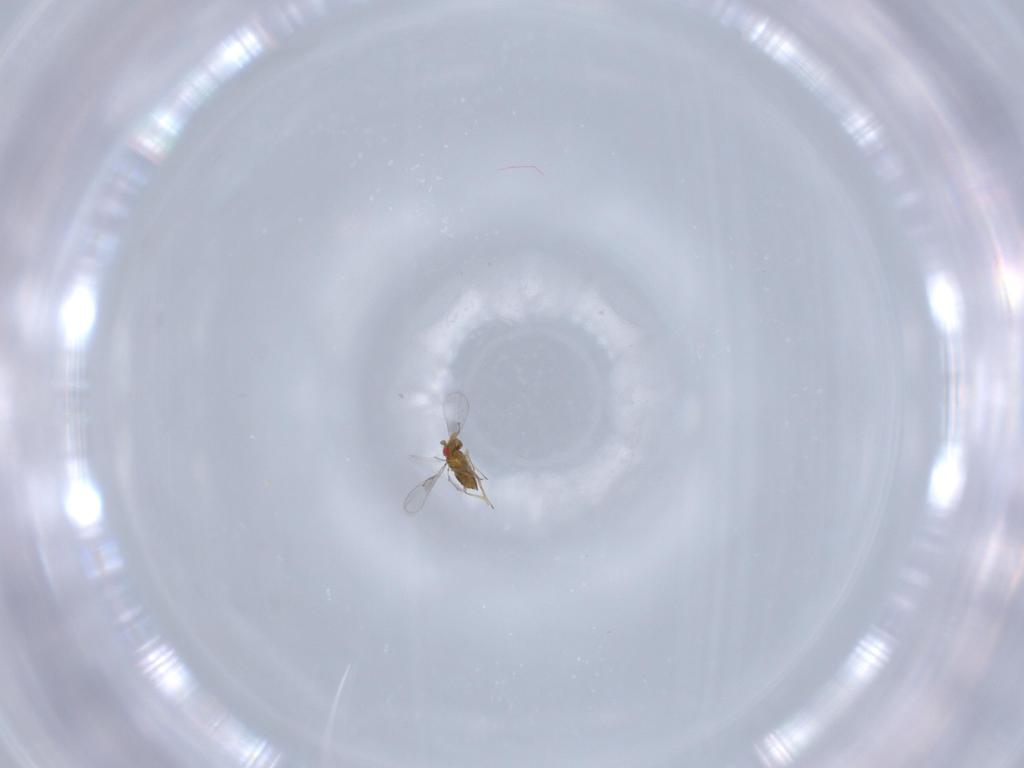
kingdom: Animalia
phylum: Arthropoda
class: Insecta
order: Hymenoptera
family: Trichogrammatidae
